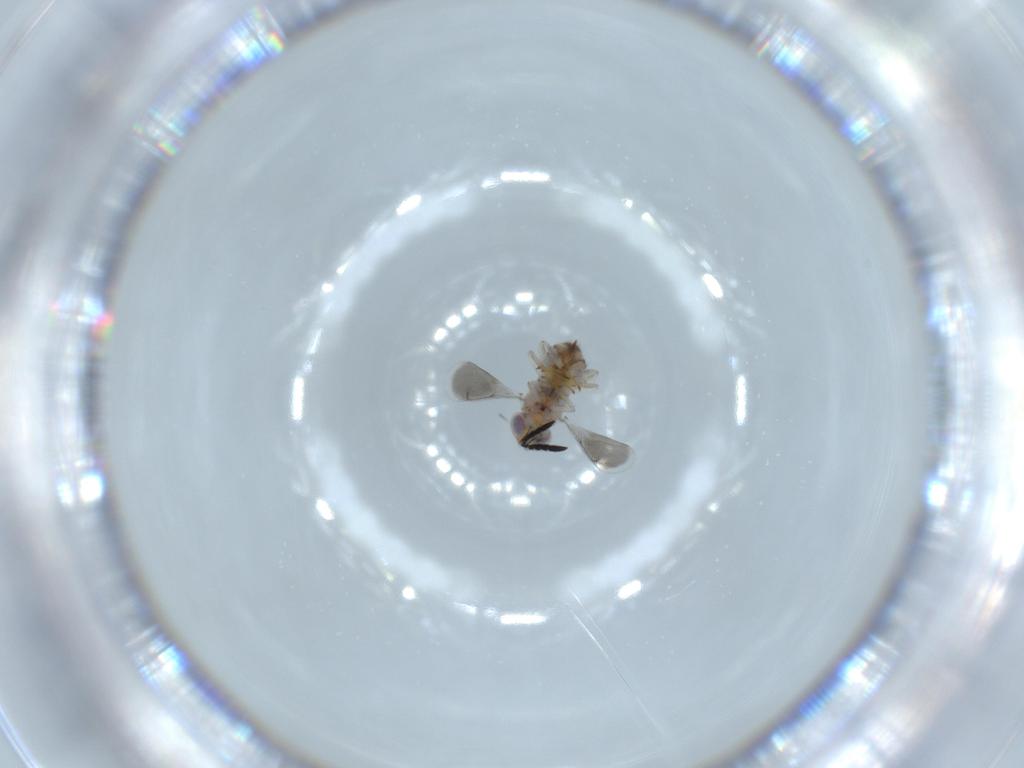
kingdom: Animalia
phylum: Arthropoda
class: Insecta
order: Hymenoptera
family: Aphelinidae
